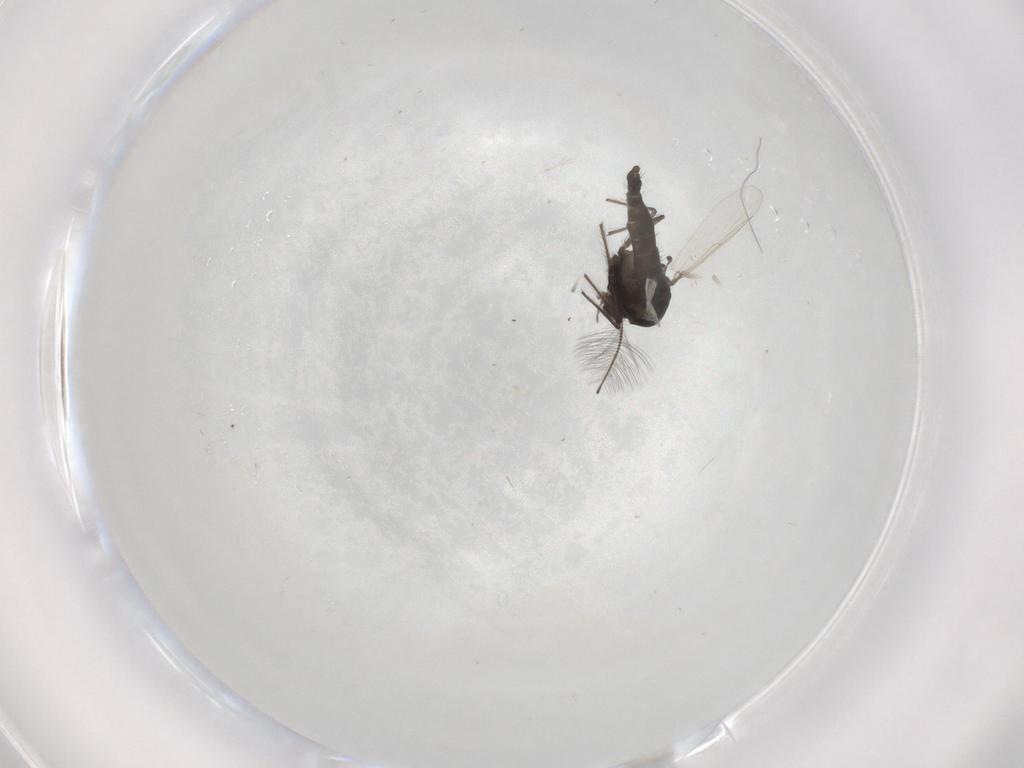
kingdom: Animalia
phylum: Arthropoda
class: Insecta
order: Diptera
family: Chironomidae
